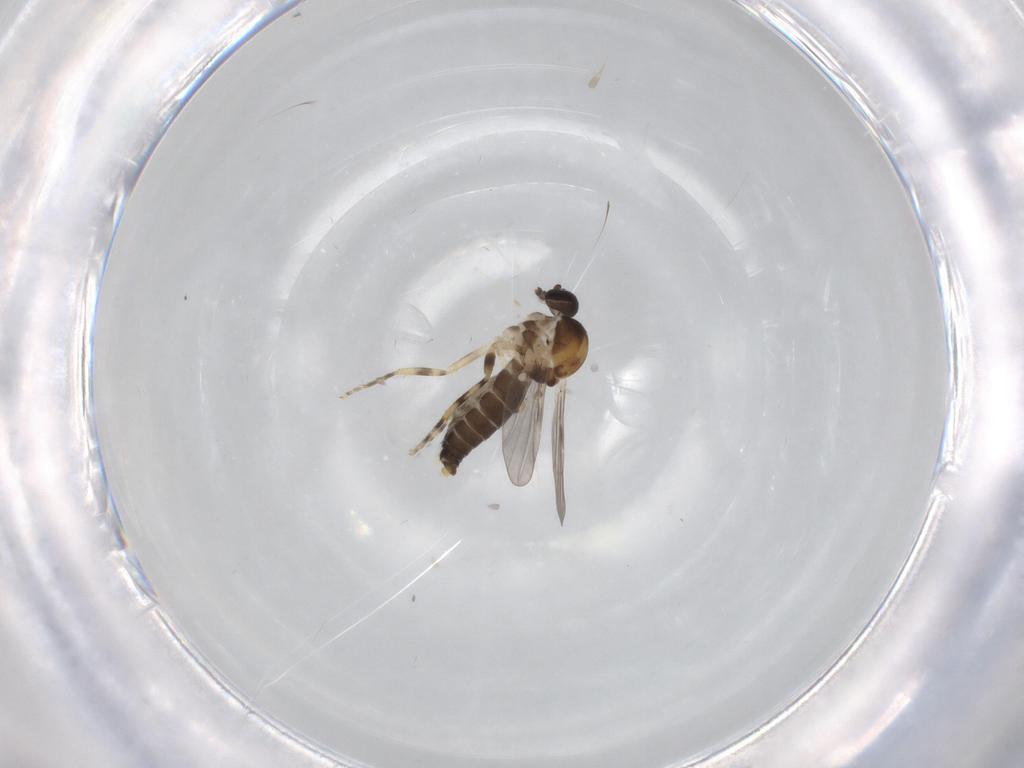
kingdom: Animalia
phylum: Arthropoda
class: Insecta
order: Diptera
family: Ceratopogonidae
